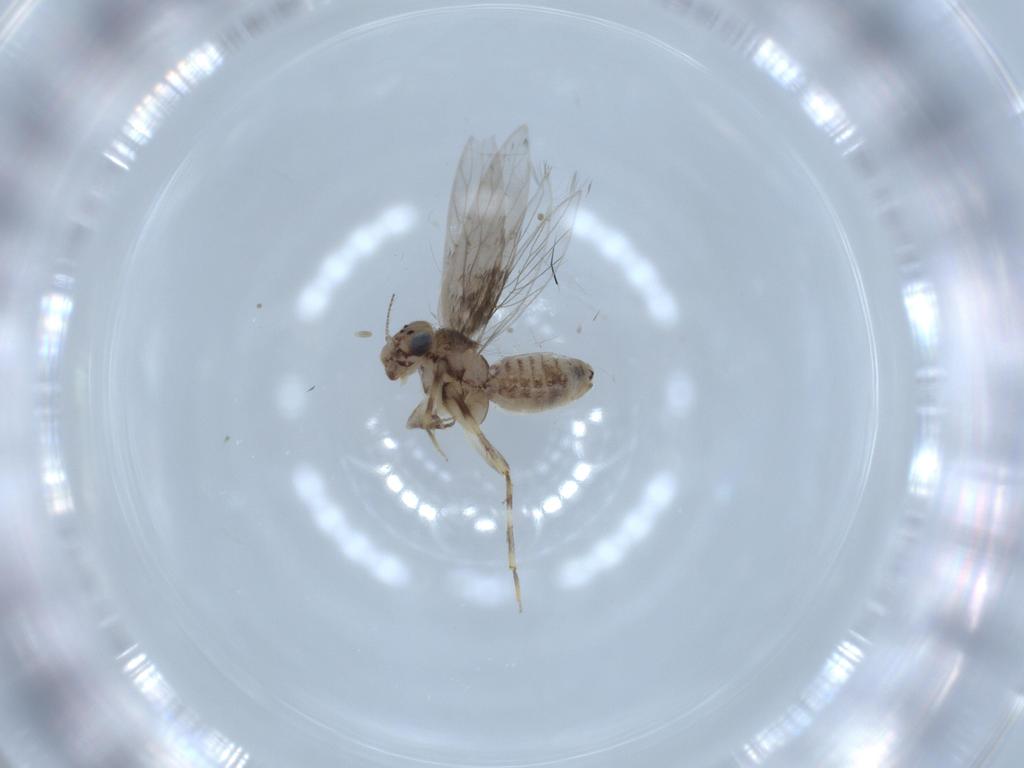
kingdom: Animalia
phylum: Arthropoda
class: Insecta
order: Psocodea
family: Lepidopsocidae
